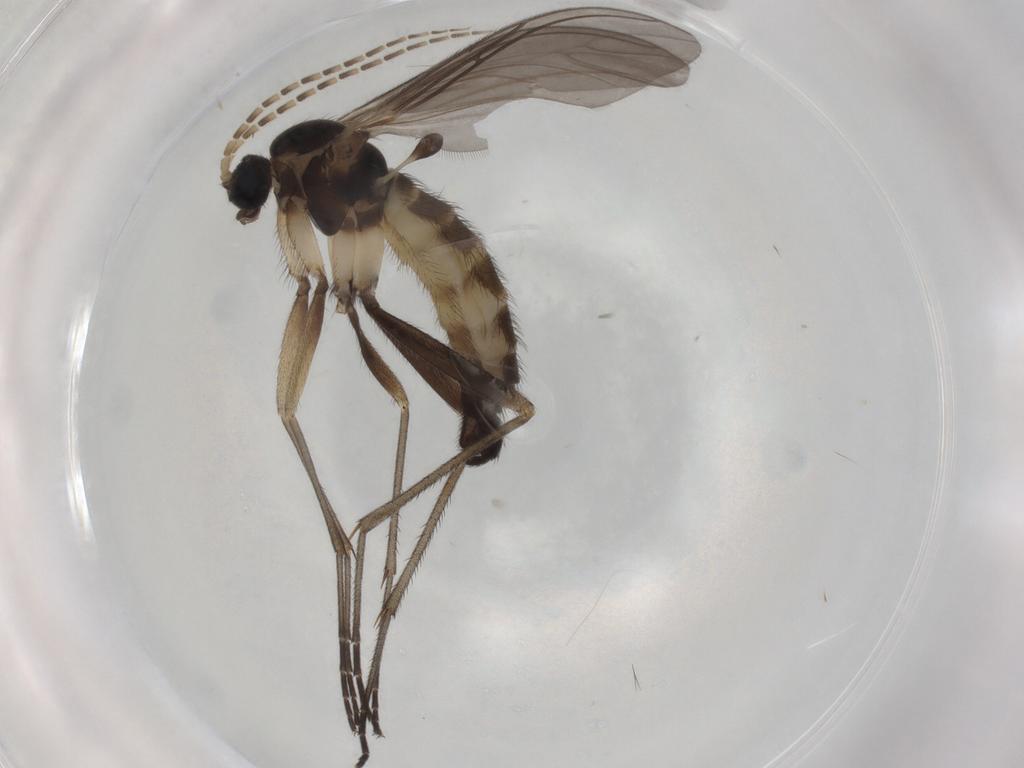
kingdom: Animalia
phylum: Arthropoda
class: Insecta
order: Diptera
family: Sciaridae
